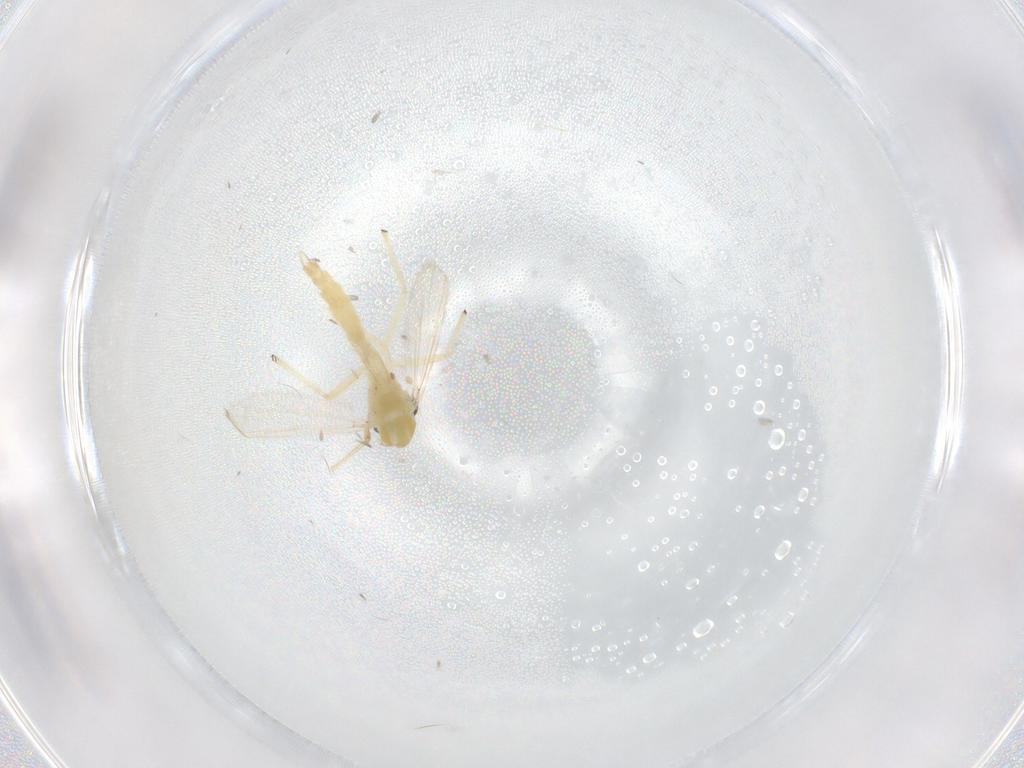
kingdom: Animalia
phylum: Arthropoda
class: Insecta
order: Diptera
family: Chironomidae
